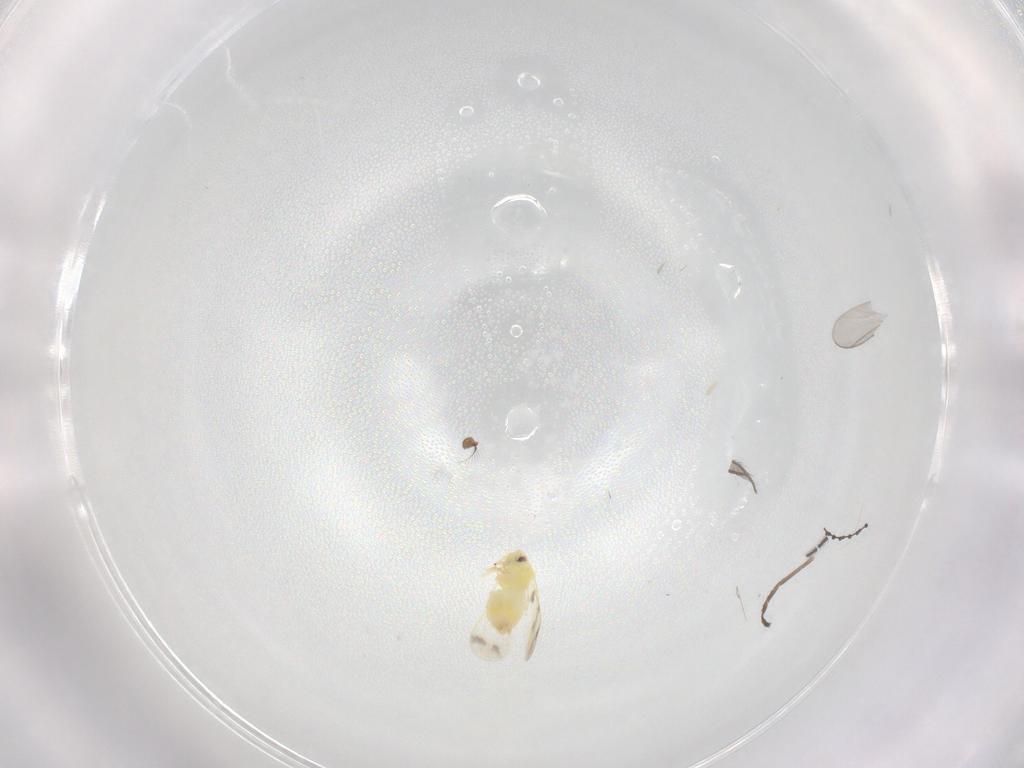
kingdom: Animalia
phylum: Arthropoda
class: Insecta
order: Hemiptera
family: Aleyrodidae
